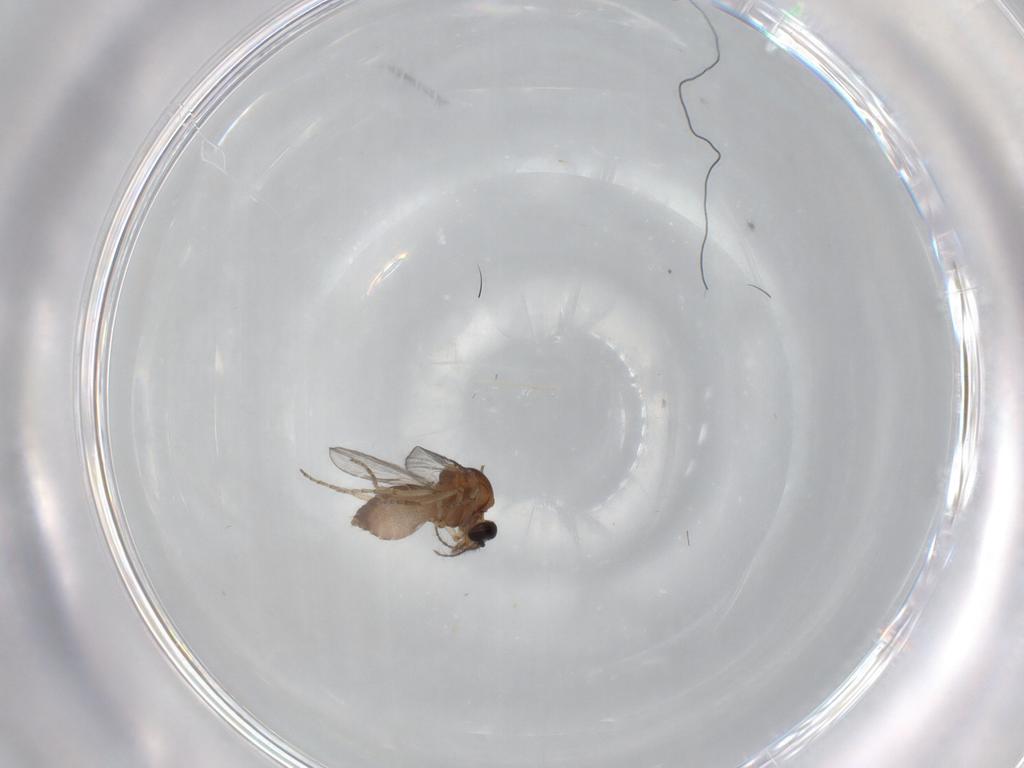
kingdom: Animalia
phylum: Arthropoda
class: Insecta
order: Diptera
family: Ceratopogonidae
